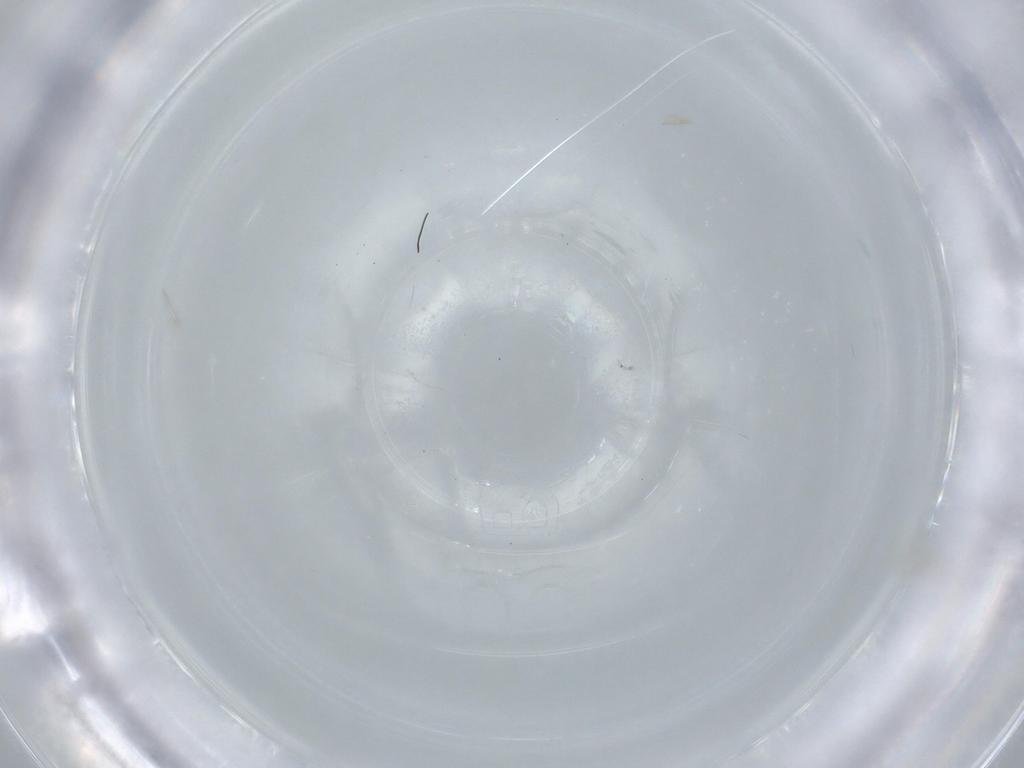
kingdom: Animalia
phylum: Arthropoda
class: Insecta
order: Diptera
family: Cecidomyiidae
